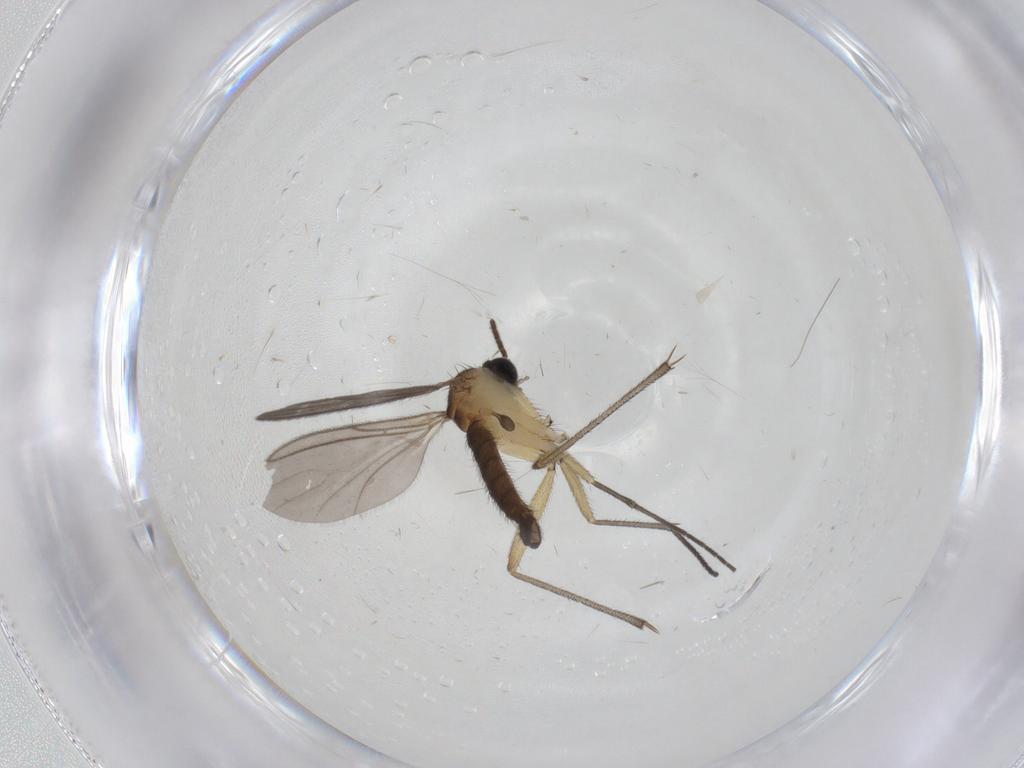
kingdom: Animalia
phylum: Arthropoda
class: Insecta
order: Diptera
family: Sciaridae
